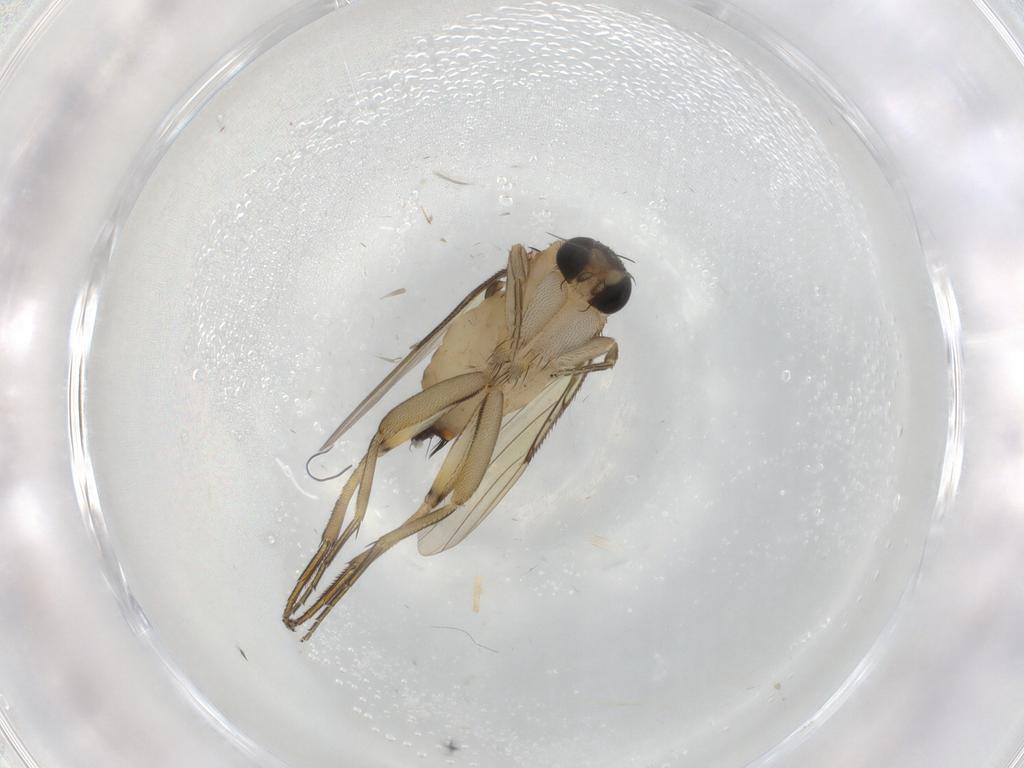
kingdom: Animalia
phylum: Arthropoda
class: Insecta
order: Diptera
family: Phoridae
